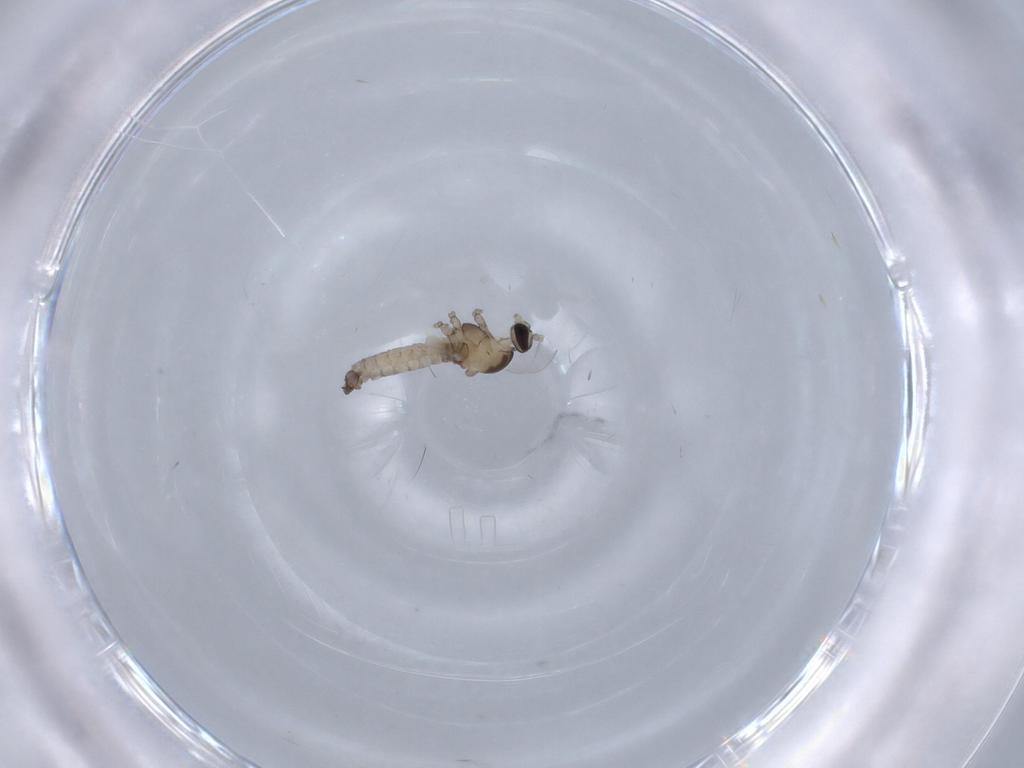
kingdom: Animalia
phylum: Arthropoda
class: Insecta
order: Diptera
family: Cecidomyiidae
